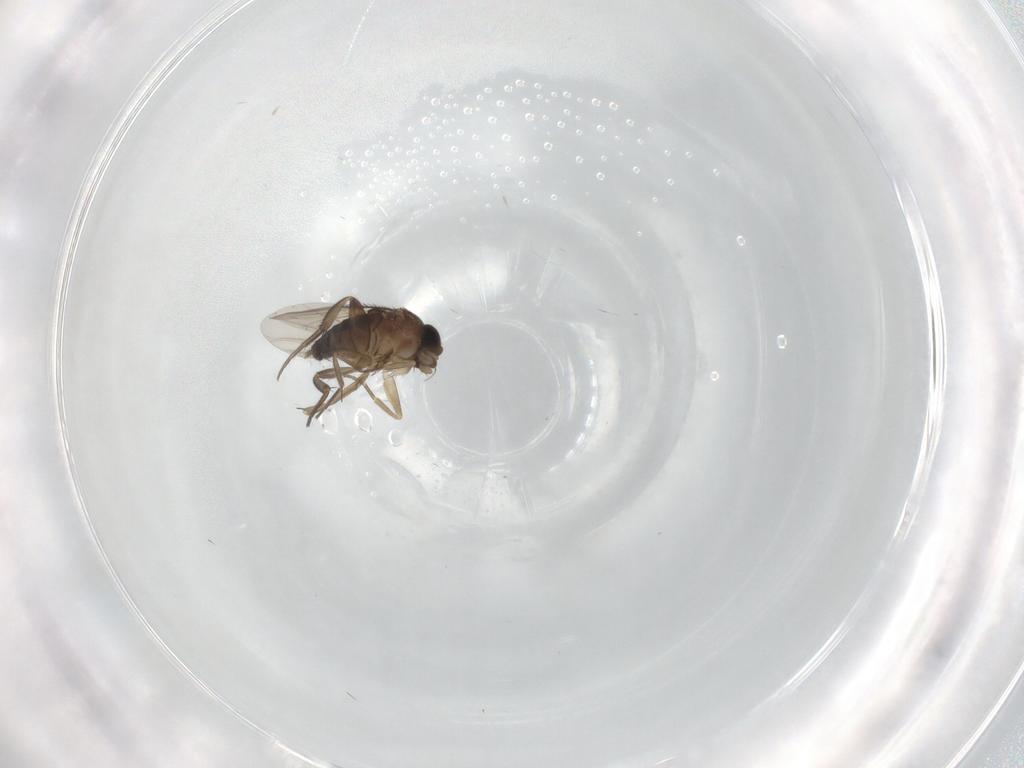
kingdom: Animalia
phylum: Arthropoda
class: Insecta
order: Diptera
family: Phoridae
